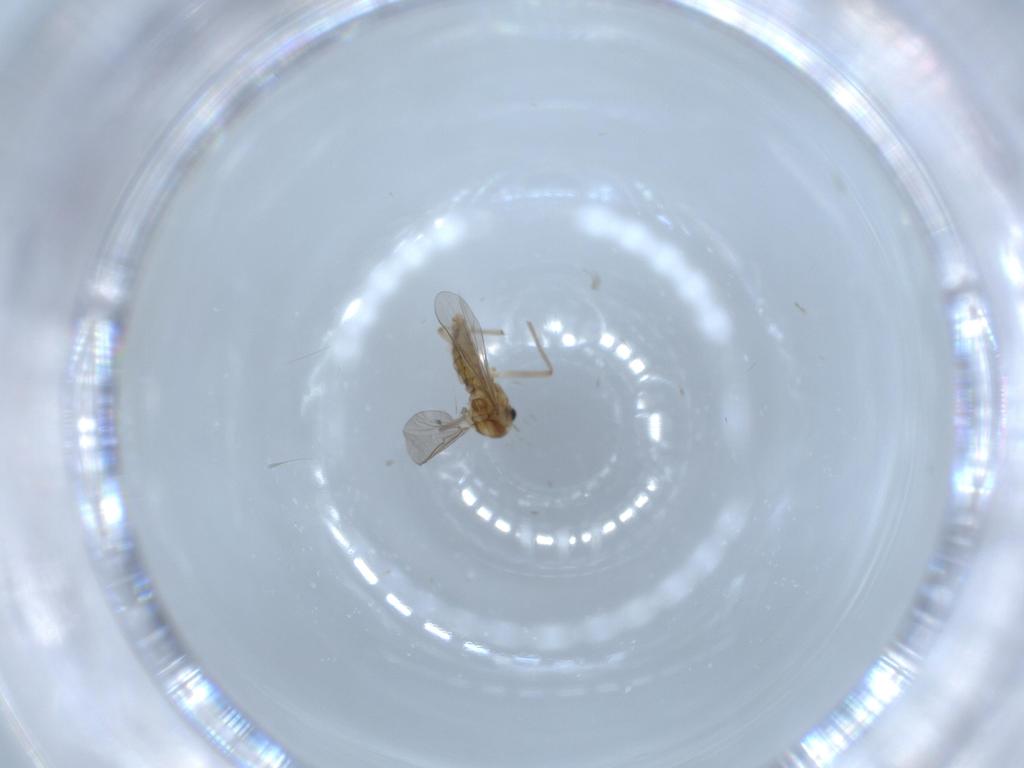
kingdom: Animalia
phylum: Arthropoda
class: Insecta
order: Diptera
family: Chironomidae
